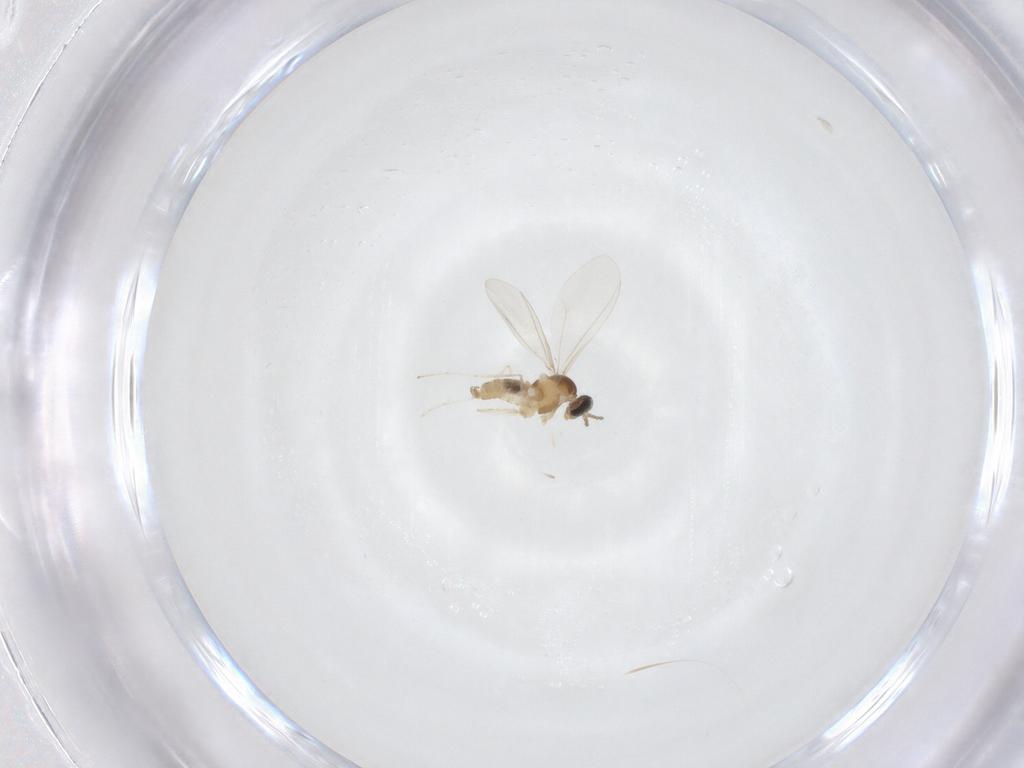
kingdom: Animalia
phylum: Arthropoda
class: Insecta
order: Diptera
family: Cecidomyiidae
